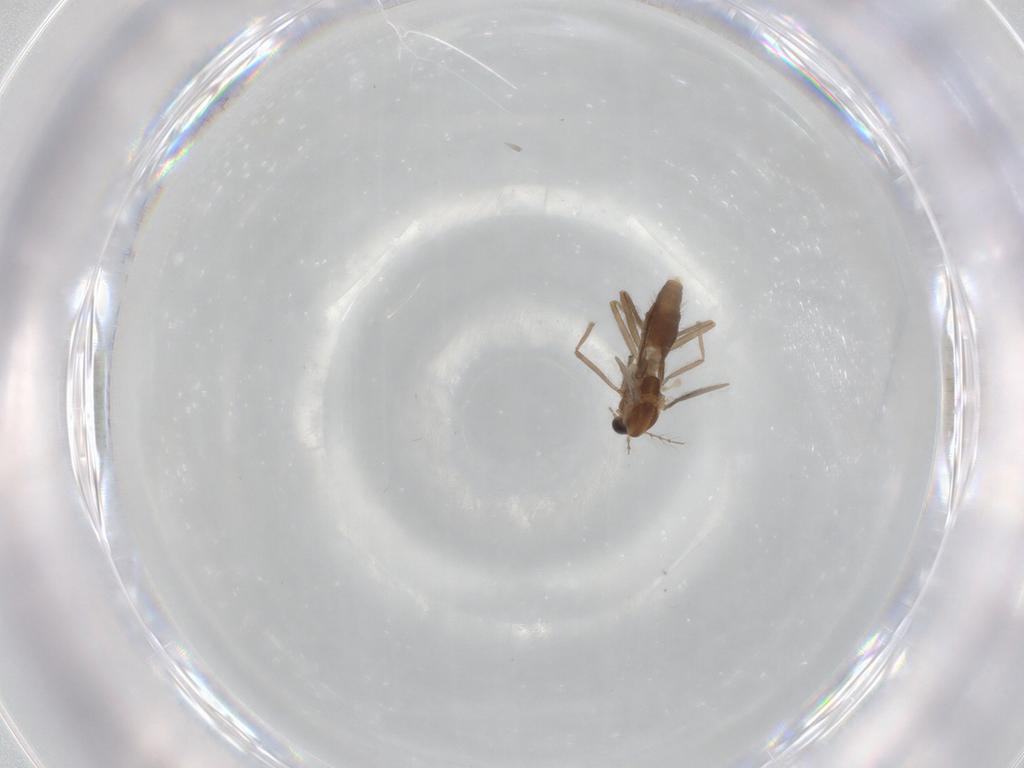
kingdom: Animalia
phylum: Arthropoda
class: Insecta
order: Diptera
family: Chironomidae
